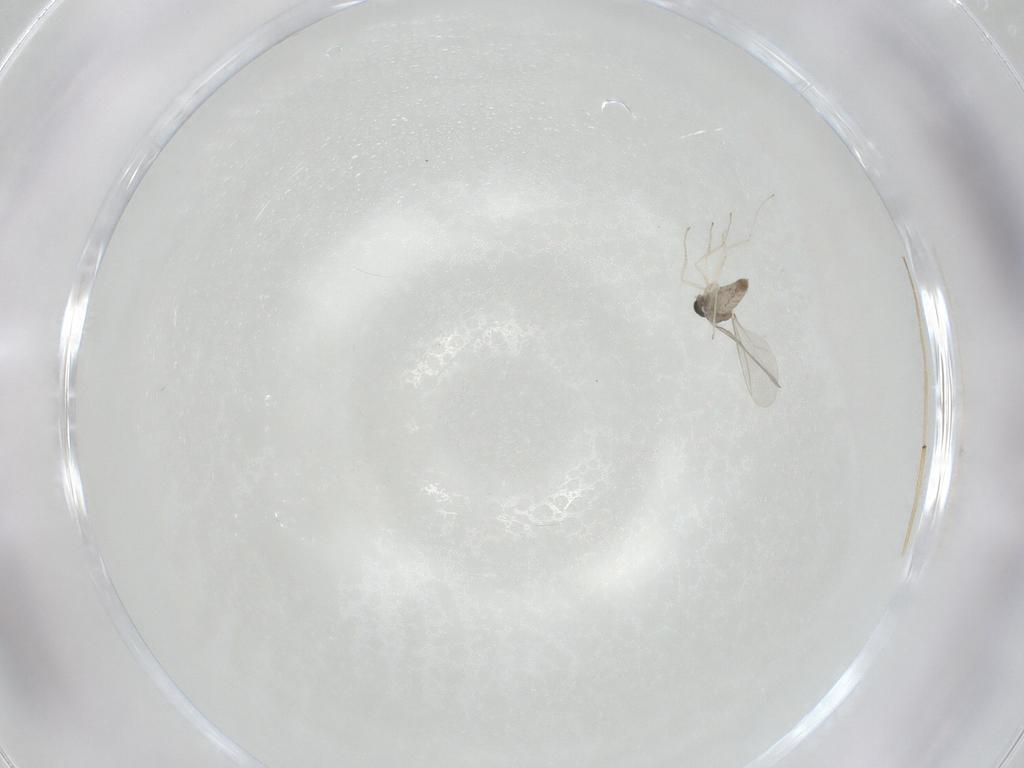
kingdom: Animalia
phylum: Arthropoda
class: Insecta
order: Diptera
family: Cecidomyiidae
